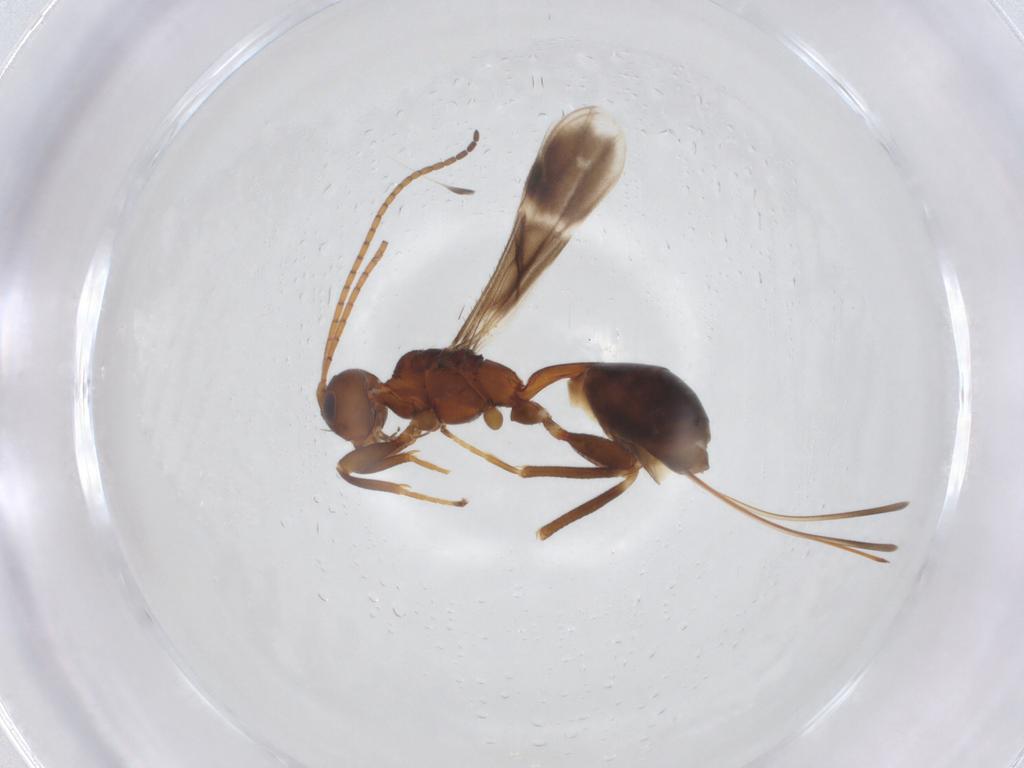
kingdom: Animalia
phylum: Arthropoda
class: Insecta
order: Hymenoptera
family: Braconidae
